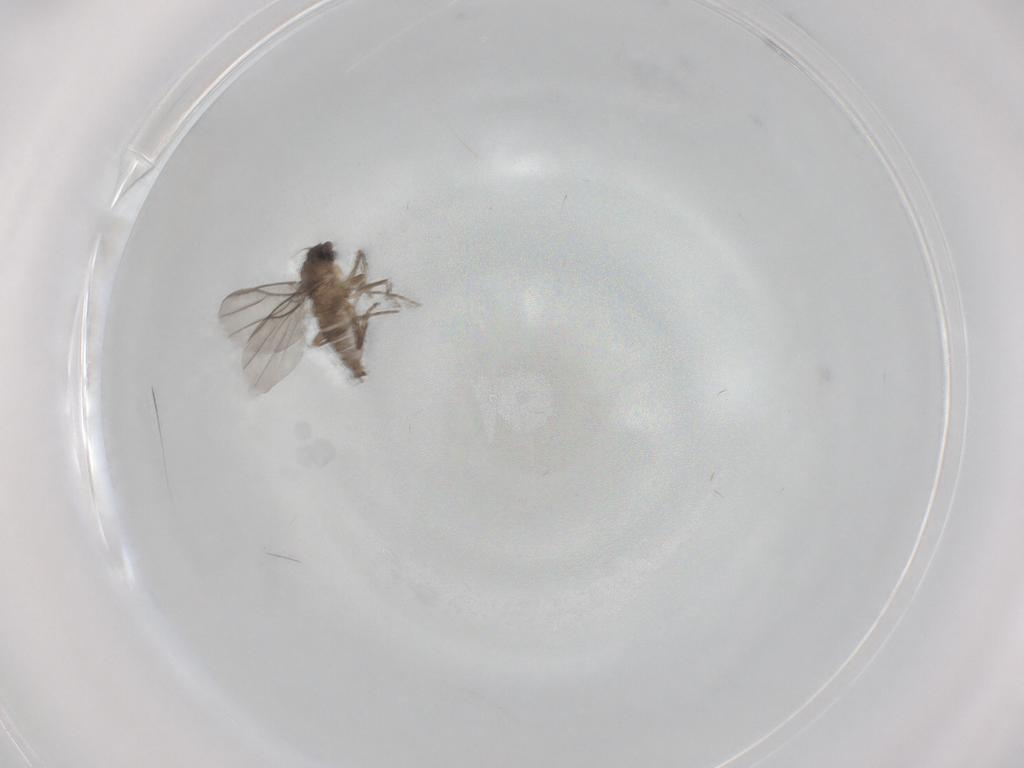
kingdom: Animalia
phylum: Arthropoda
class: Insecta
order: Diptera
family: Phoridae
